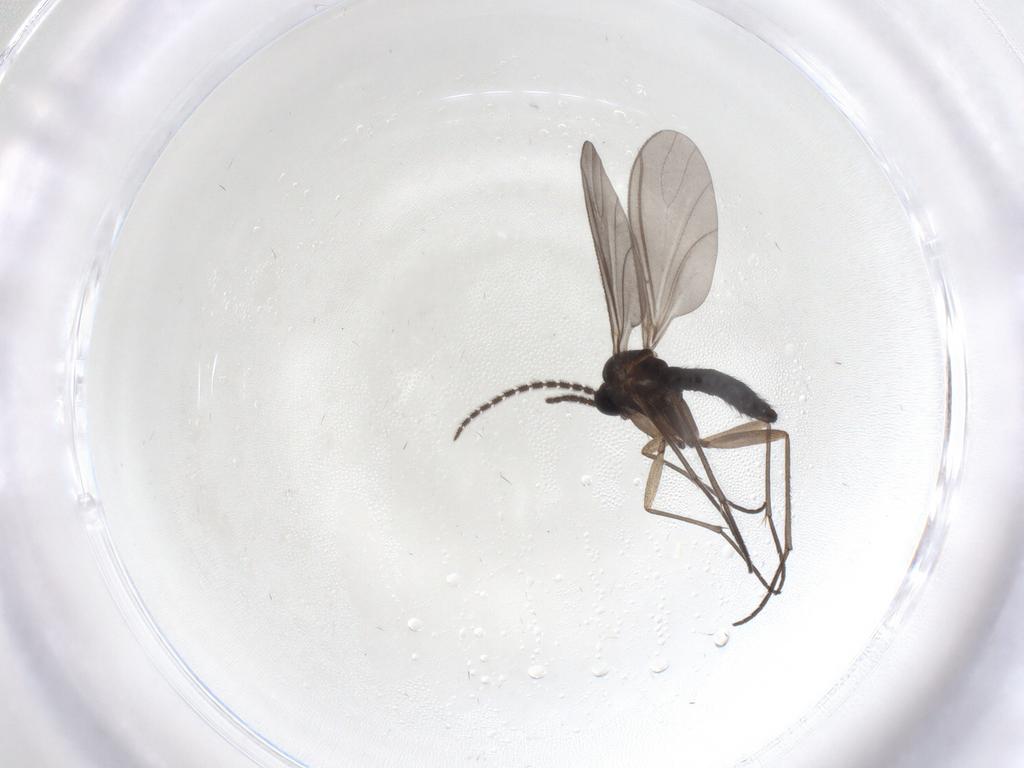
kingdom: Animalia
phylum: Arthropoda
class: Insecta
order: Diptera
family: Sciaridae
